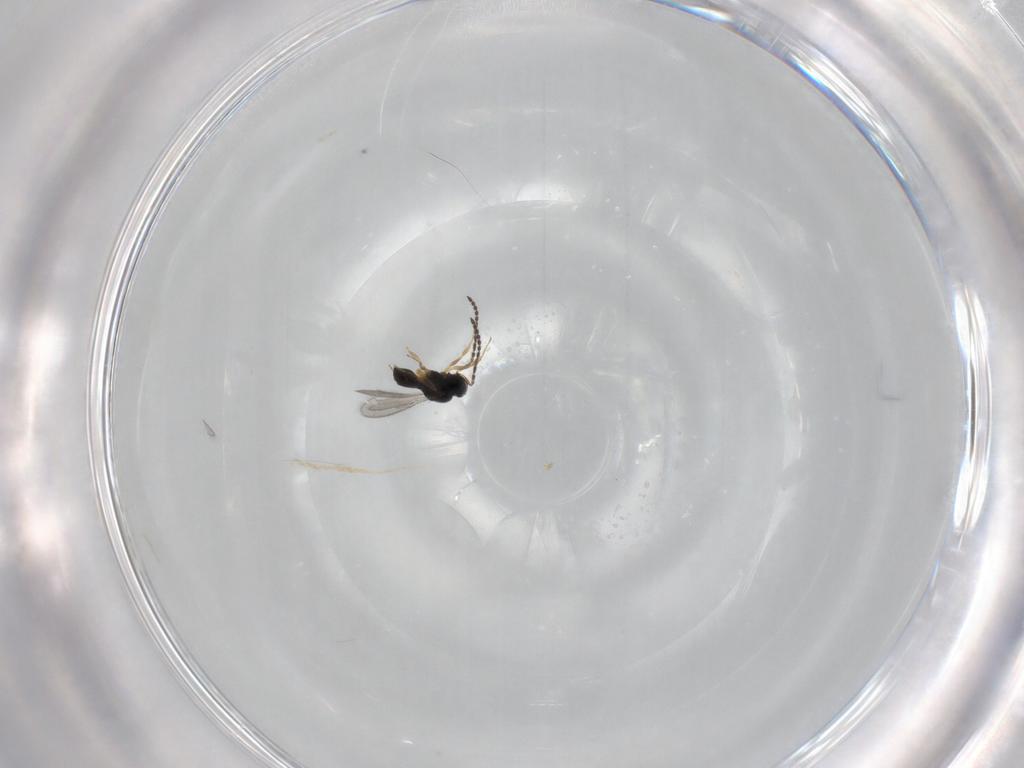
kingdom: Animalia
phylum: Arthropoda
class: Insecta
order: Hymenoptera
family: Scelionidae
